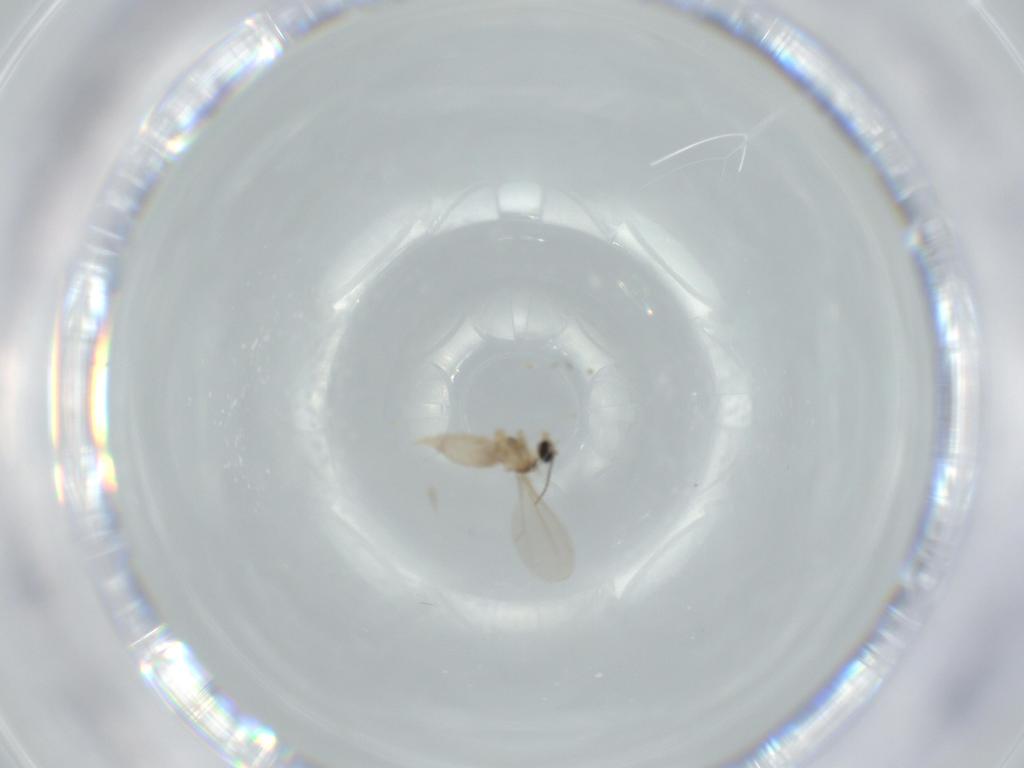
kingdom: Animalia
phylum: Arthropoda
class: Insecta
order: Diptera
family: Cecidomyiidae
